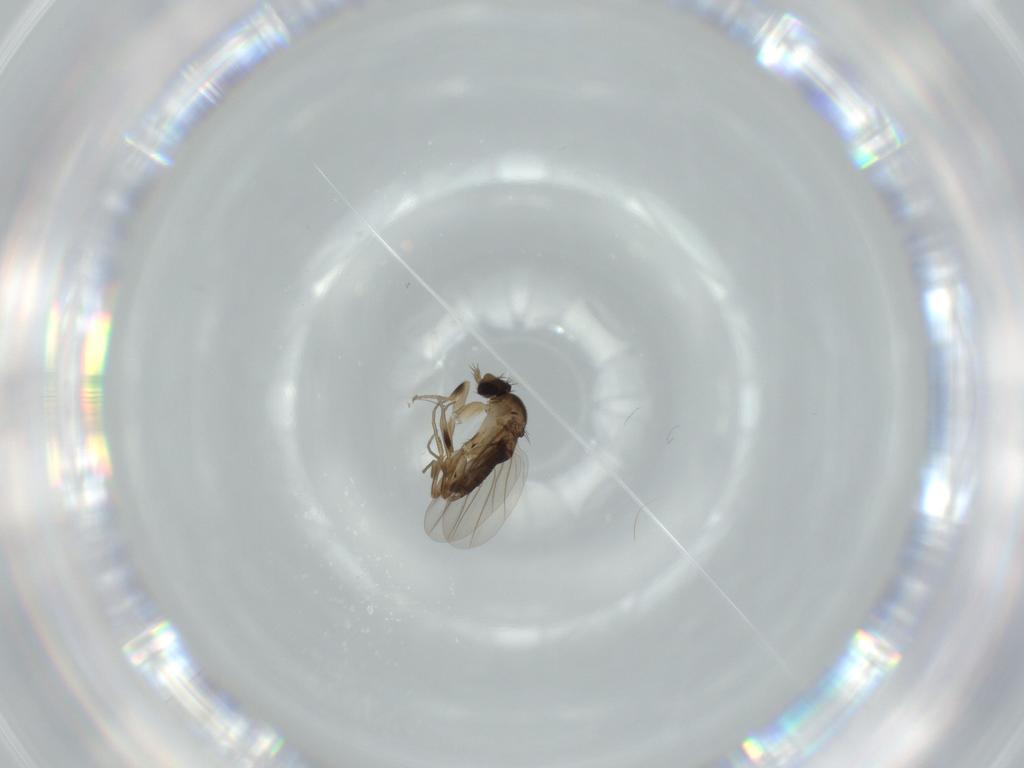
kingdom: Animalia
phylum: Arthropoda
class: Insecta
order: Diptera
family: Phoridae
